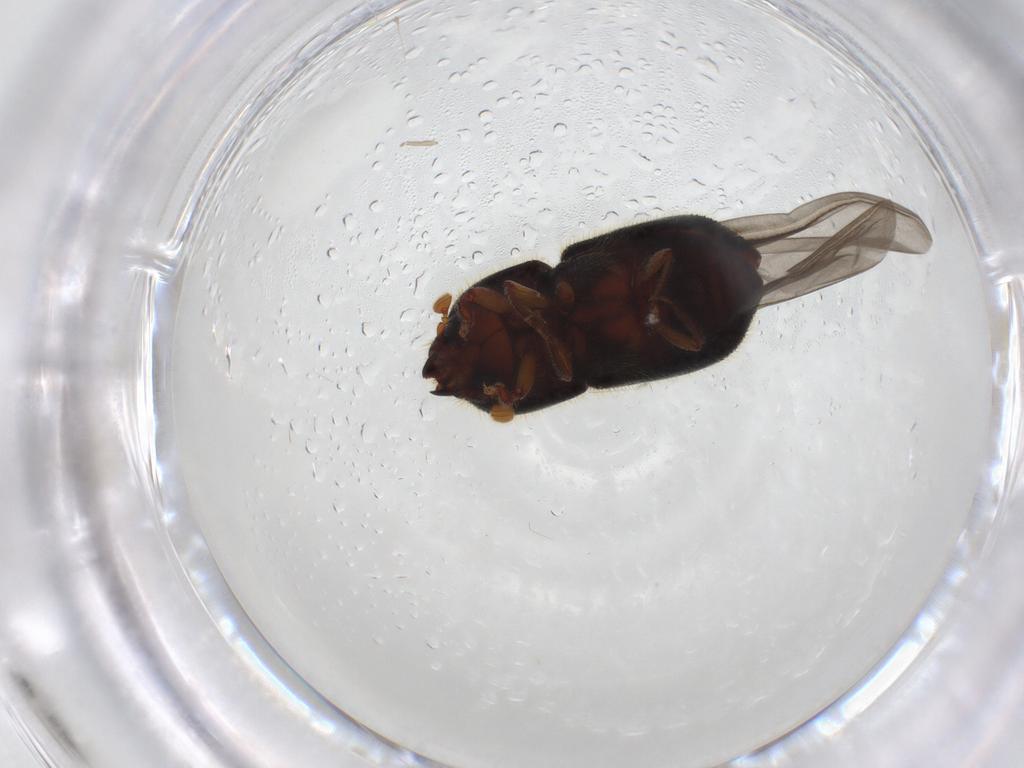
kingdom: Animalia
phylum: Arthropoda
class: Insecta
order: Coleoptera
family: Curculionidae
